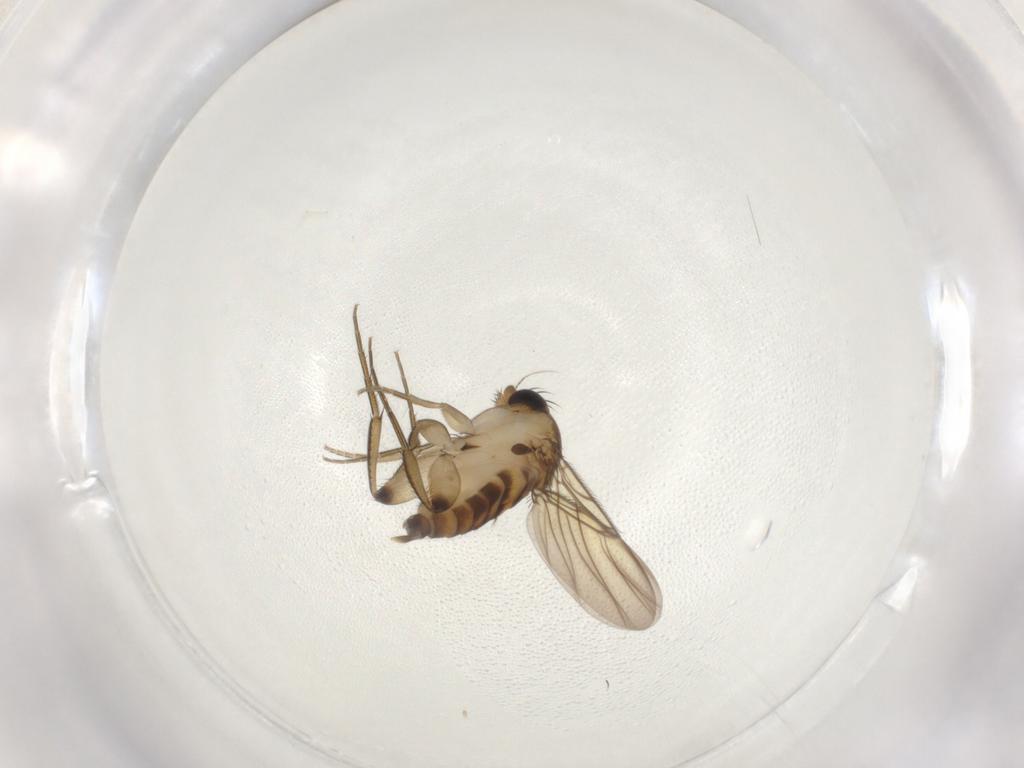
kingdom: Animalia
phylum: Arthropoda
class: Insecta
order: Diptera
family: Phoridae
